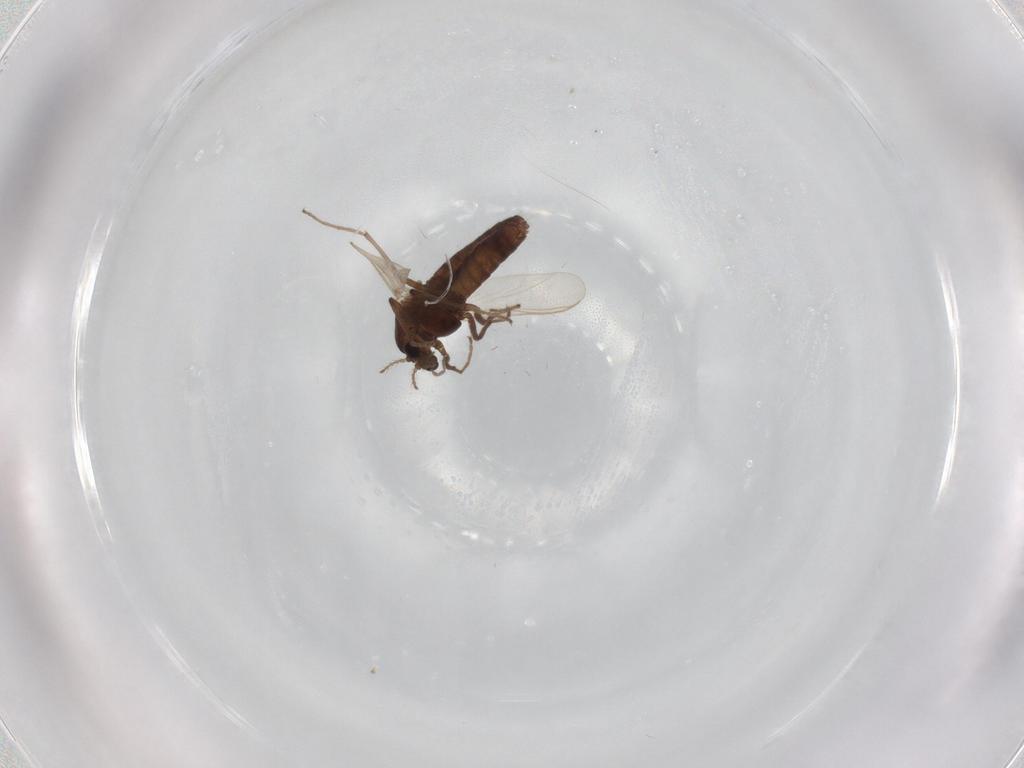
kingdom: Animalia
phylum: Arthropoda
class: Insecta
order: Diptera
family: Chironomidae
